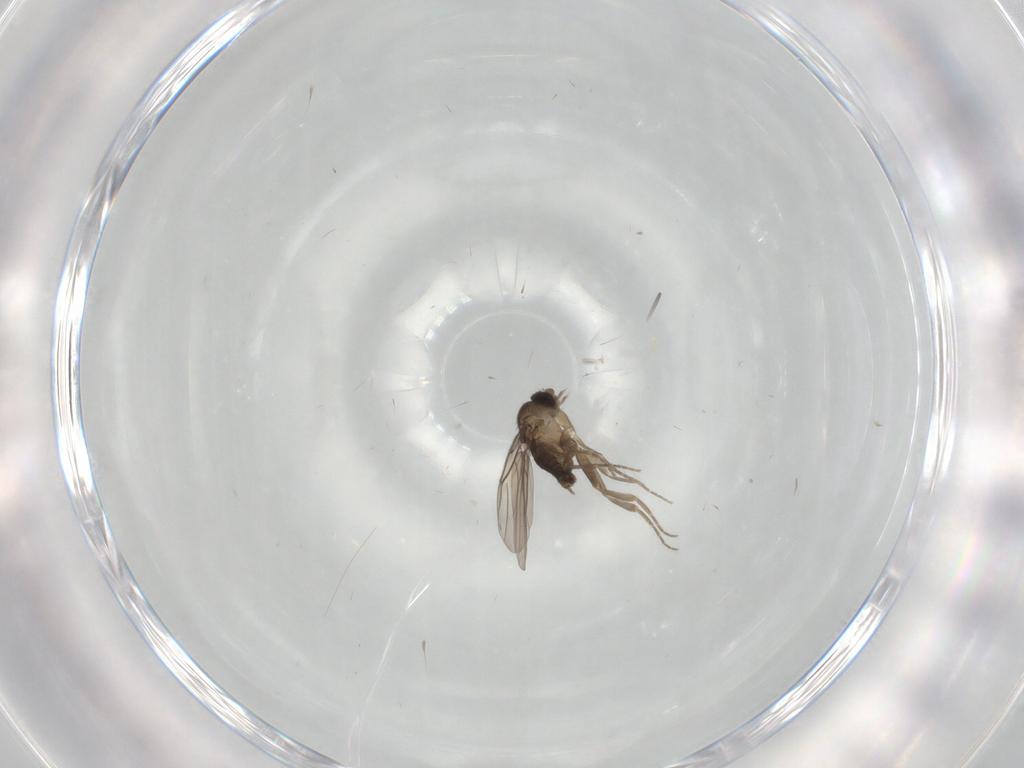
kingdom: Animalia
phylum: Arthropoda
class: Insecta
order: Diptera
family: Phoridae
